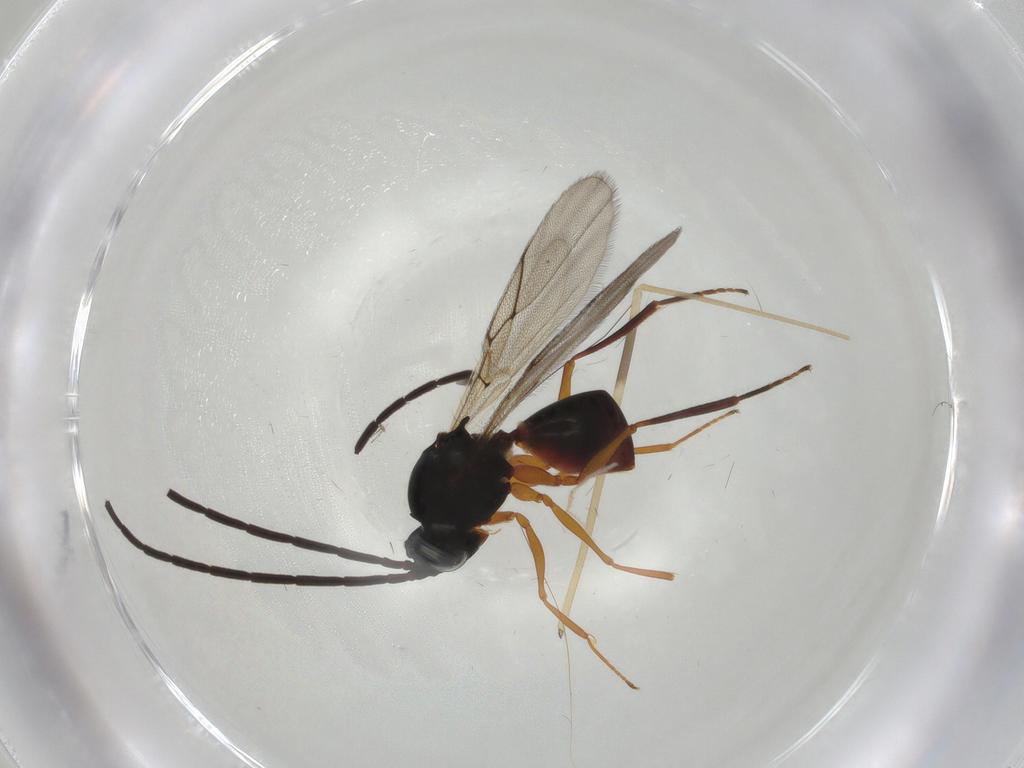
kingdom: Animalia
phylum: Arthropoda
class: Insecta
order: Hymenoptera
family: Figitidae
